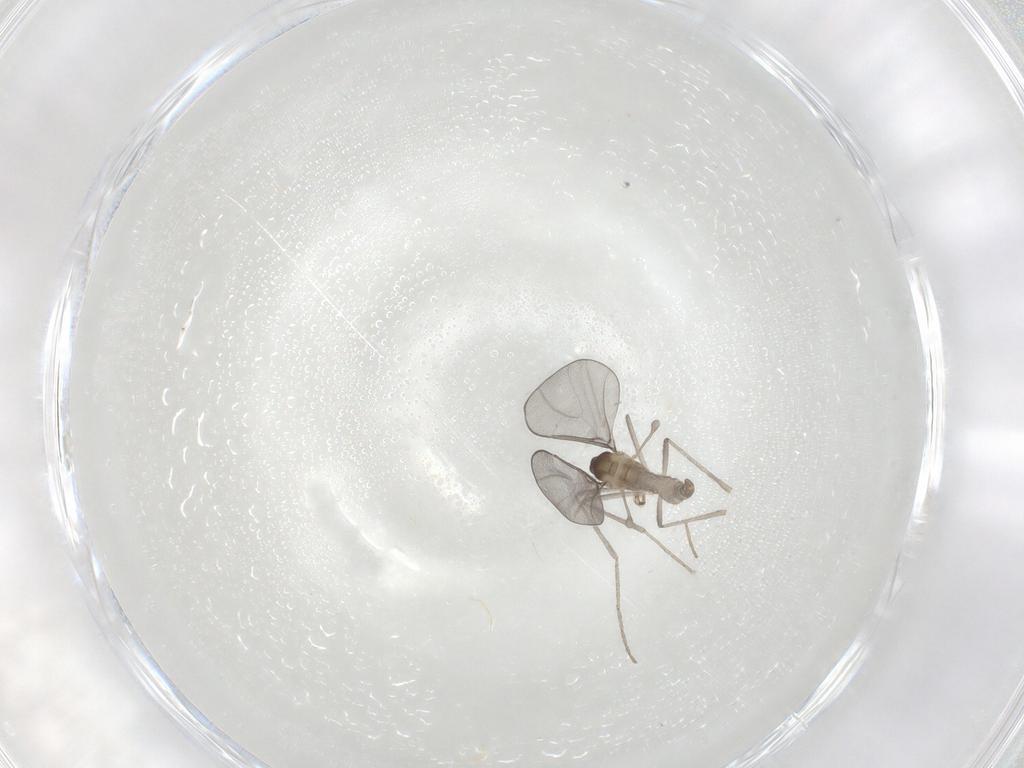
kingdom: Animalia
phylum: Arthropoda
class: Insecta
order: Diptera
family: Cecidomyiidae
